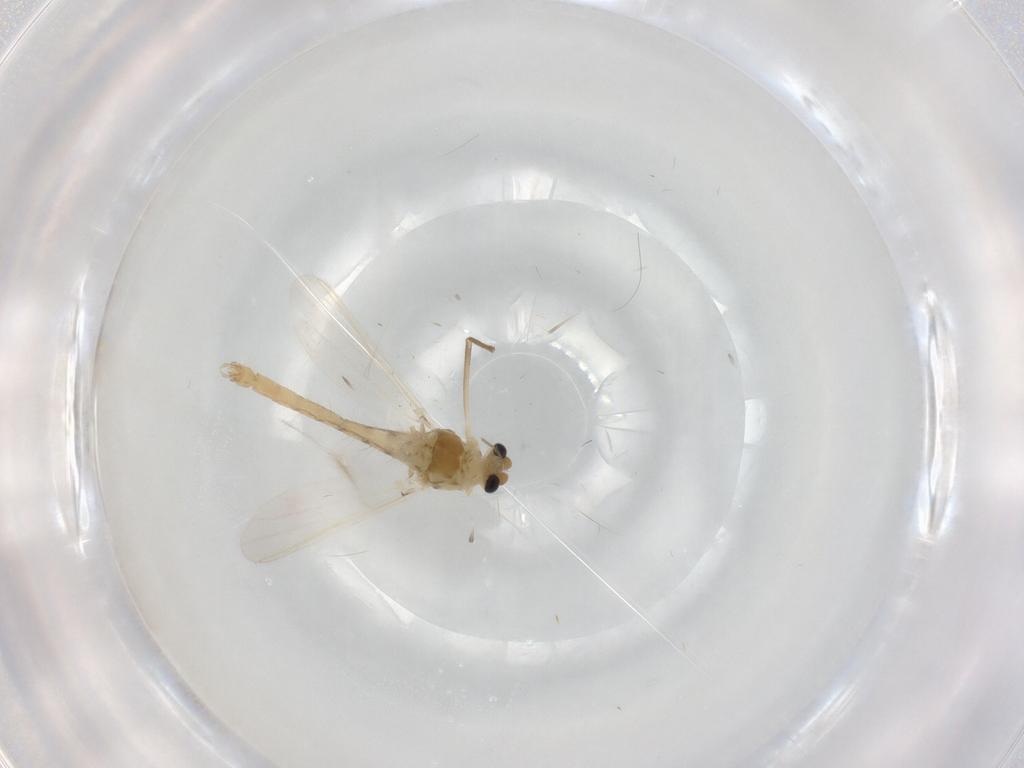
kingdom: Animalia
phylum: Arthropoda
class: Insecta
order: Diptera
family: Chironomidae
